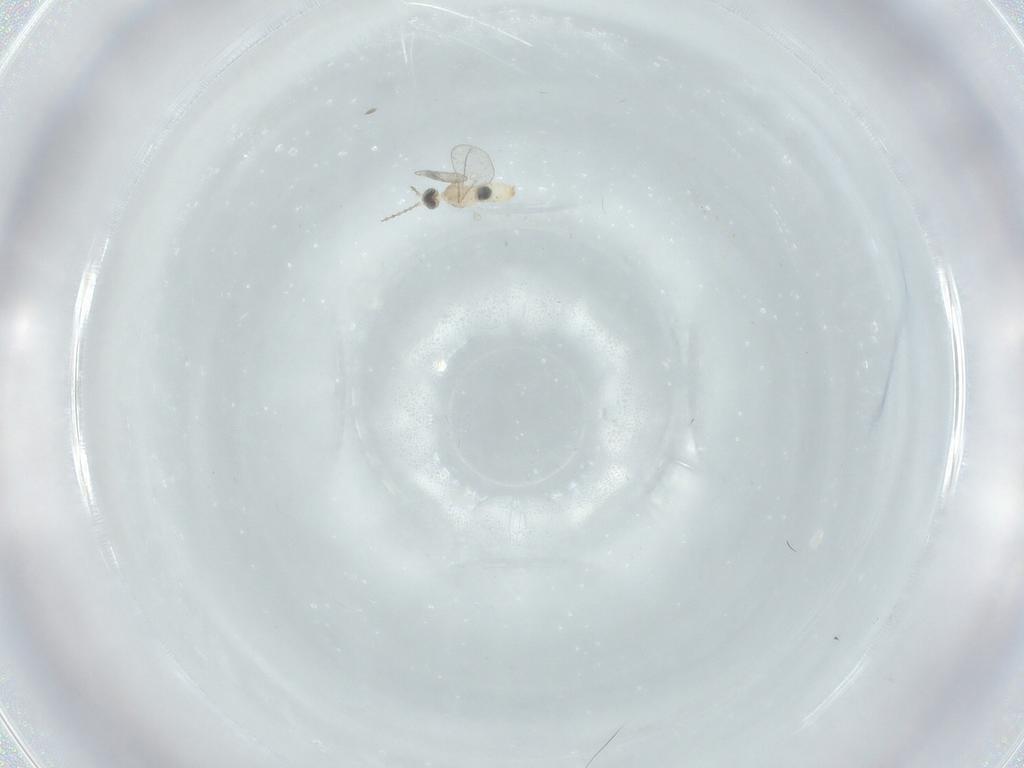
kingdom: Animalia
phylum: Arthropoda
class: Insecta
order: Diptera
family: Cecidomyiidae
